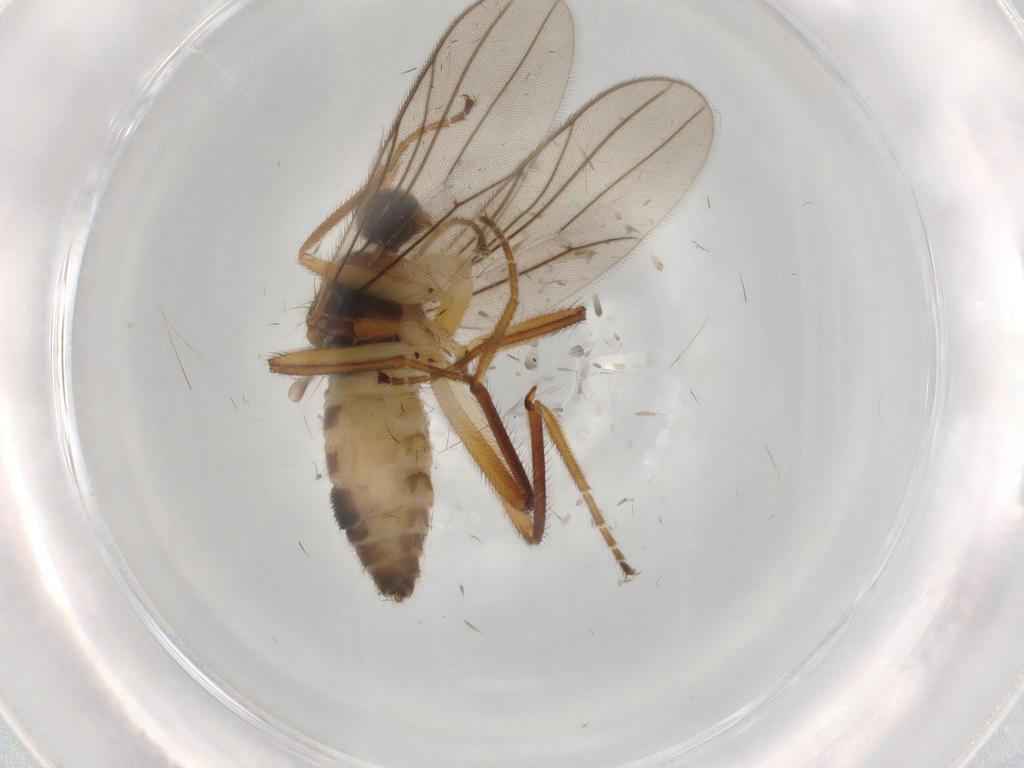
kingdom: Animalia
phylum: Arthropoda
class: Insecta
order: Diptera
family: Hybotidae
